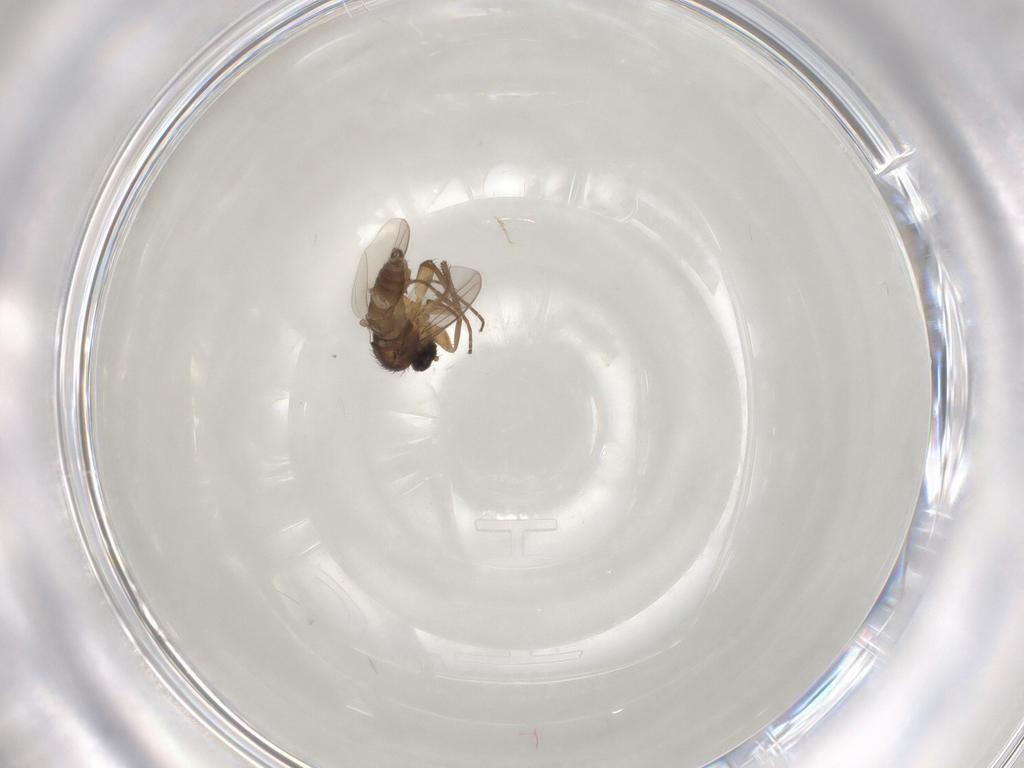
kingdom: Animalia
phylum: Arthropoda
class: Insecta
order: Diptera
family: Hybotidae
